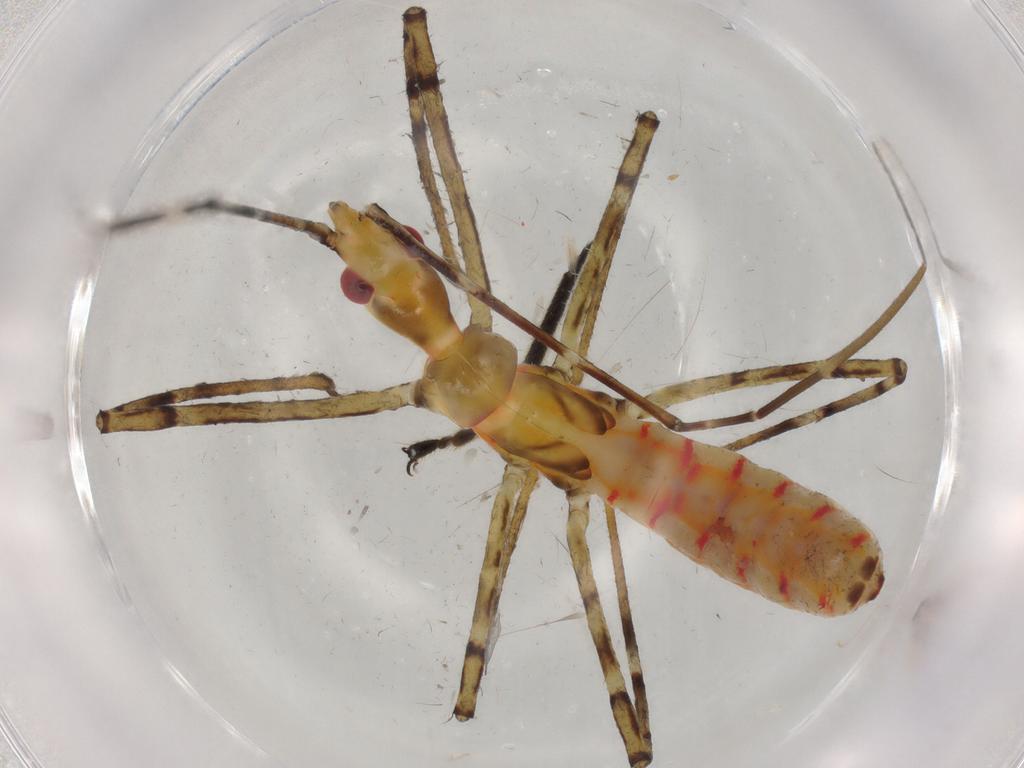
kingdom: Animalia
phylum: Arthropoda
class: Insecta
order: Hemiptera
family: Reduviidae
